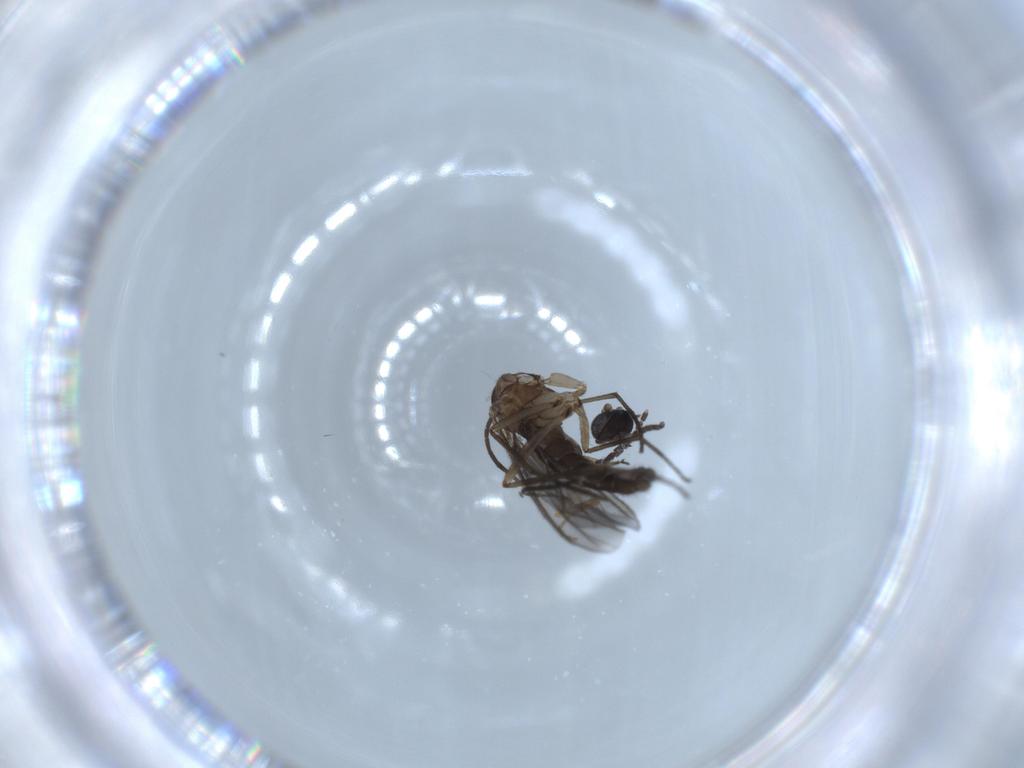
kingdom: Animalia
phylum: Arthropoda
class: Insecta
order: Diptera
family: Sciaridae
